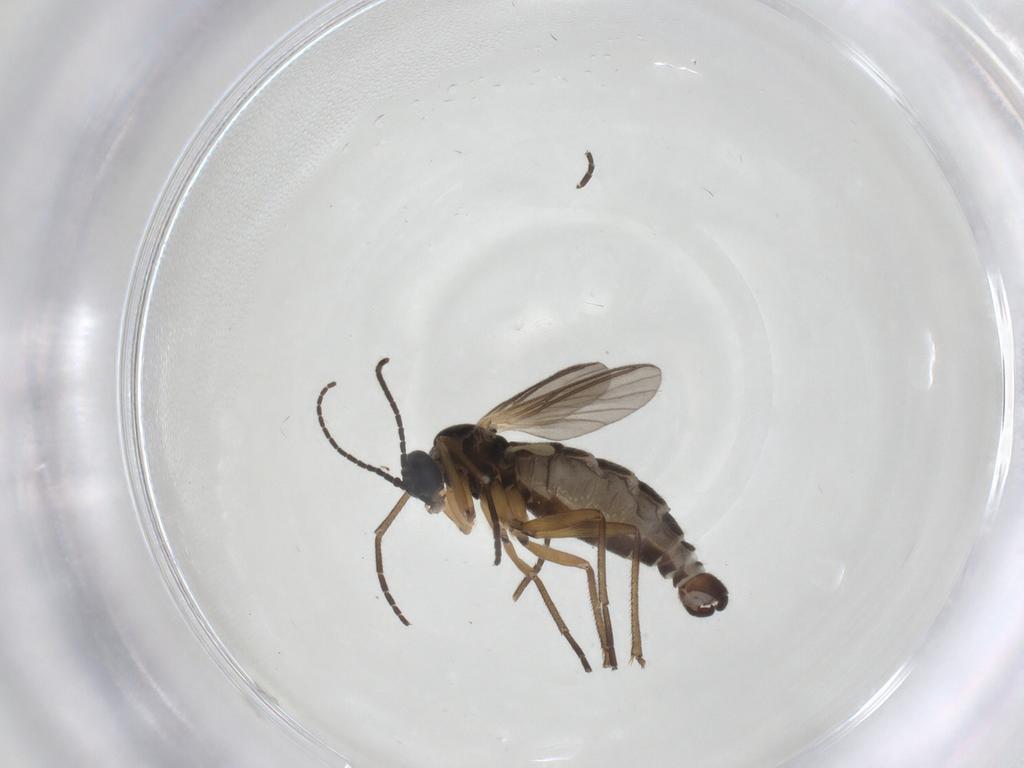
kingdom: Animalia
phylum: Arthropoda
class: Insecta
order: Diptera
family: Sciaridae
